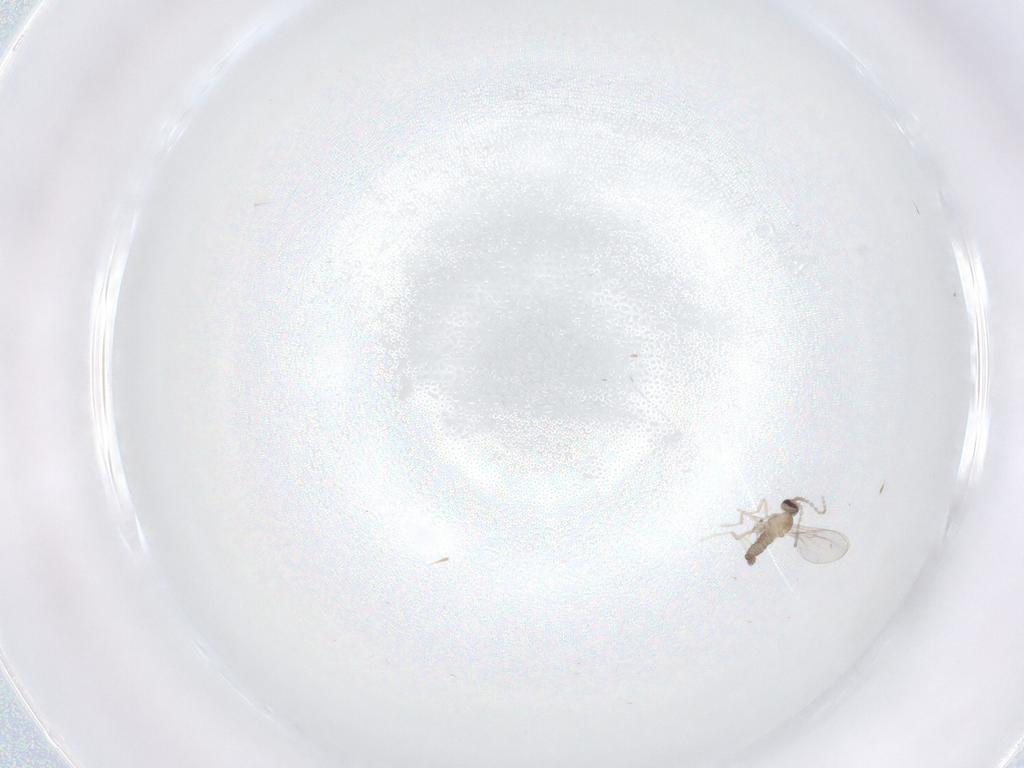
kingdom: Animalia
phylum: Arthropoda
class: Insecta
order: Diptera
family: Cecidomyiidae
